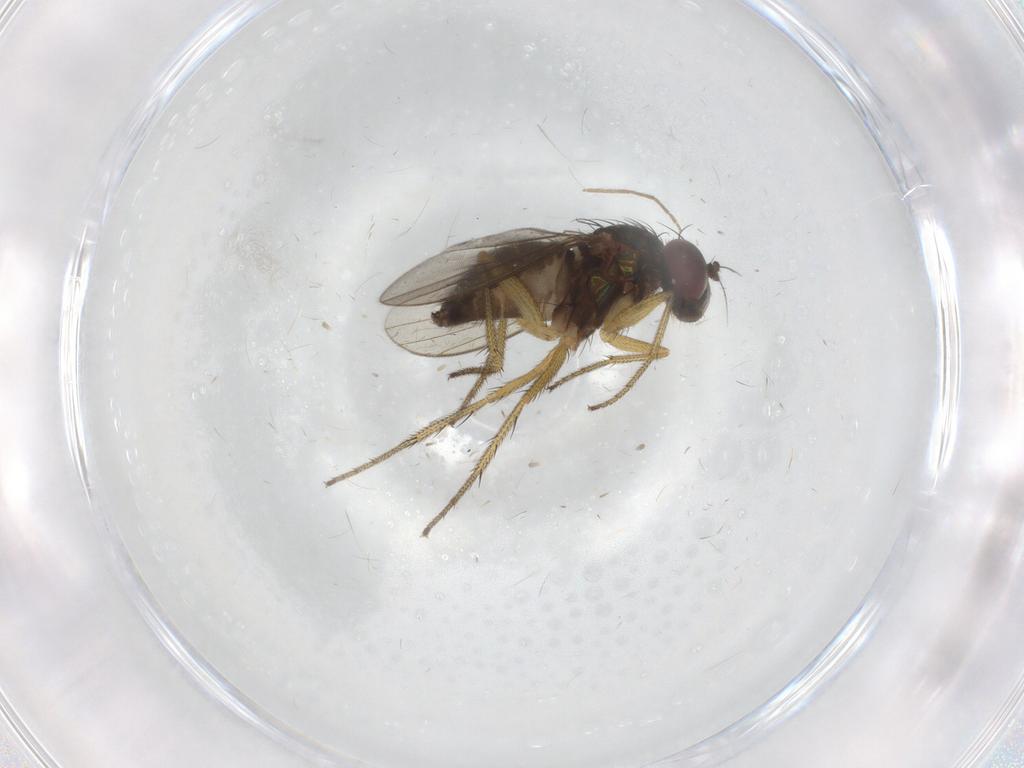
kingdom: Animalia
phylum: Arthropoda
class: Insecta
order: Diptera
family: Dolichopodidae
